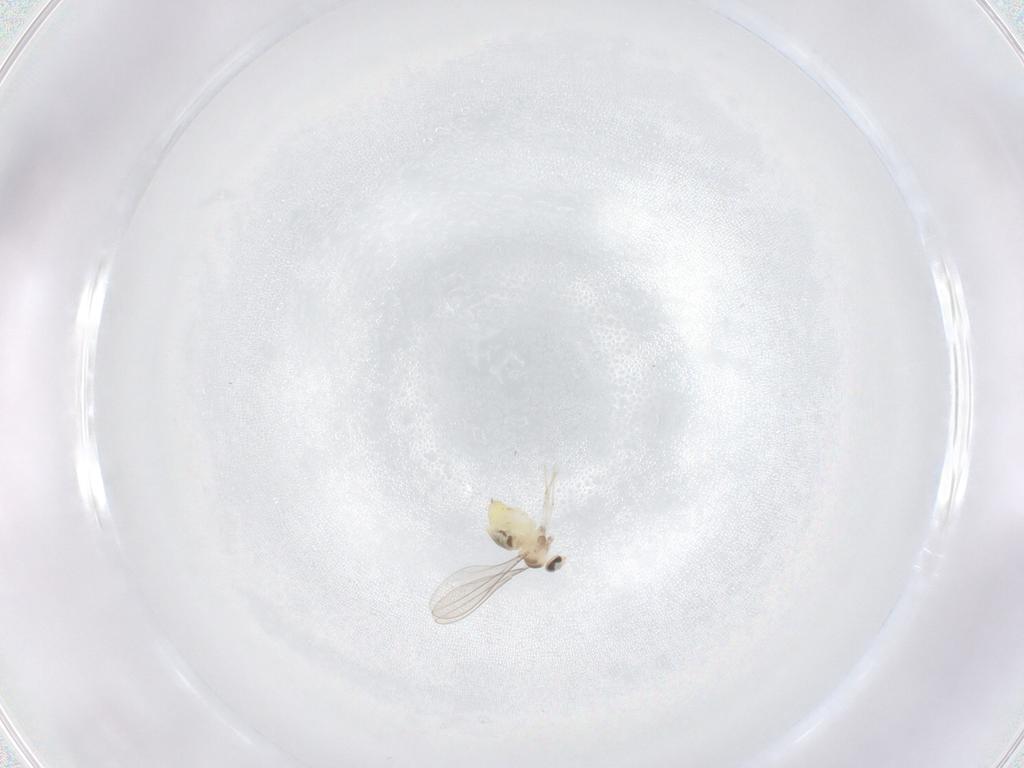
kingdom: Animalia
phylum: Arthropoda
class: Insecta
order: Diptera
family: Cecidomyiidae
